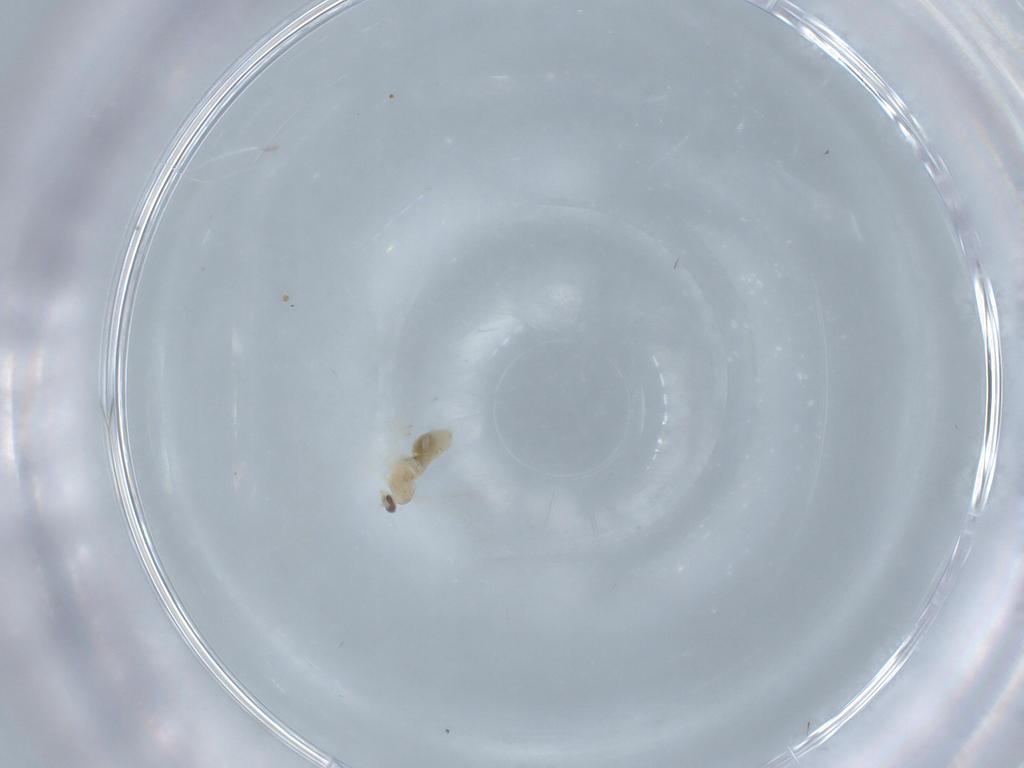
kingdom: Animalia
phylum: Arthropoda
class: Insecta
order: Diptera
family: Cecidomyiidae
